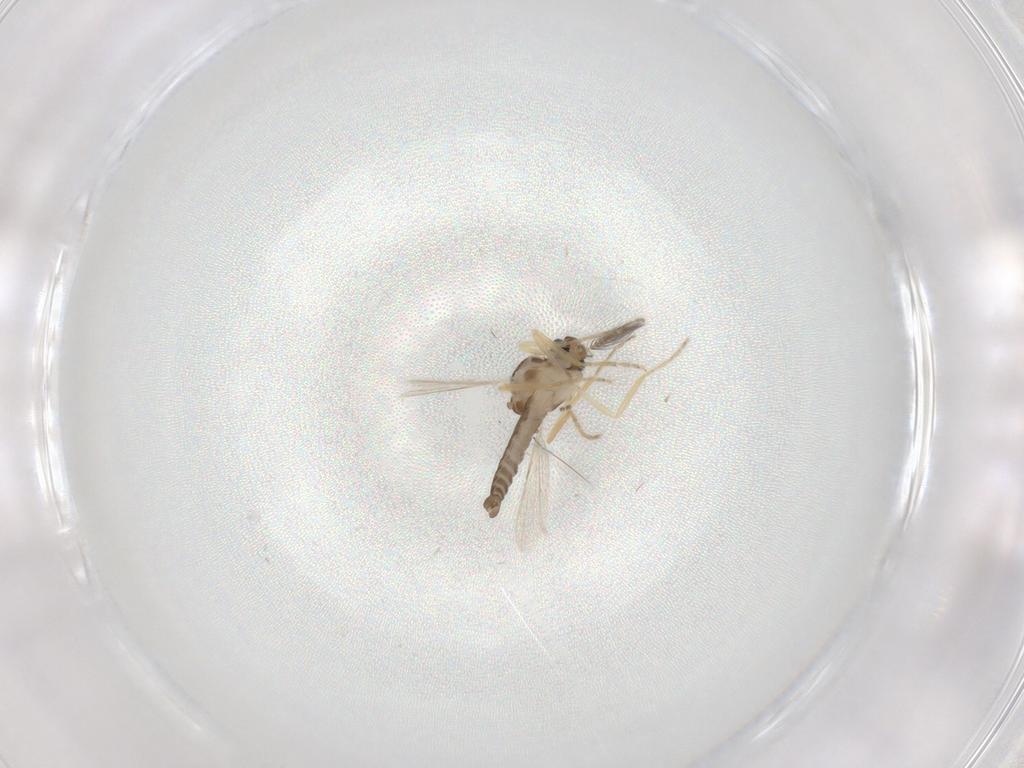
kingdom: Animalia
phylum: Arthropoda
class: Insecta
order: Diptera
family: Ceratopogonidae
